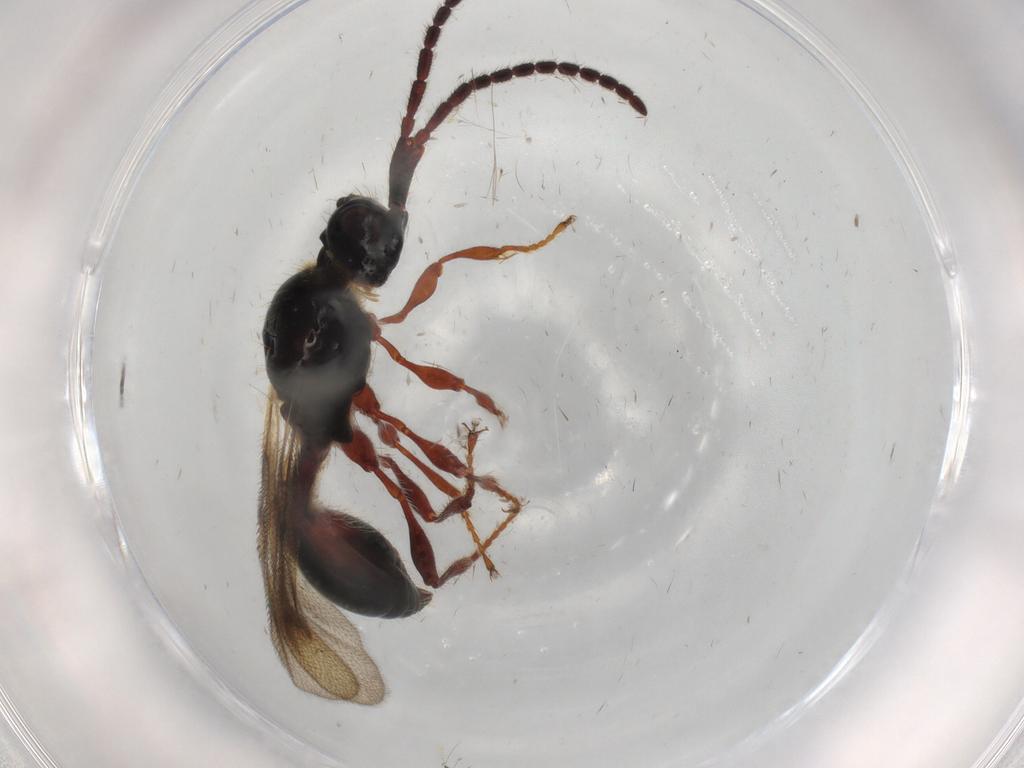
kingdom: Animalia
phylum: Arthropoda
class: Insecta
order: Hymenoptera
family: Diapriidae
